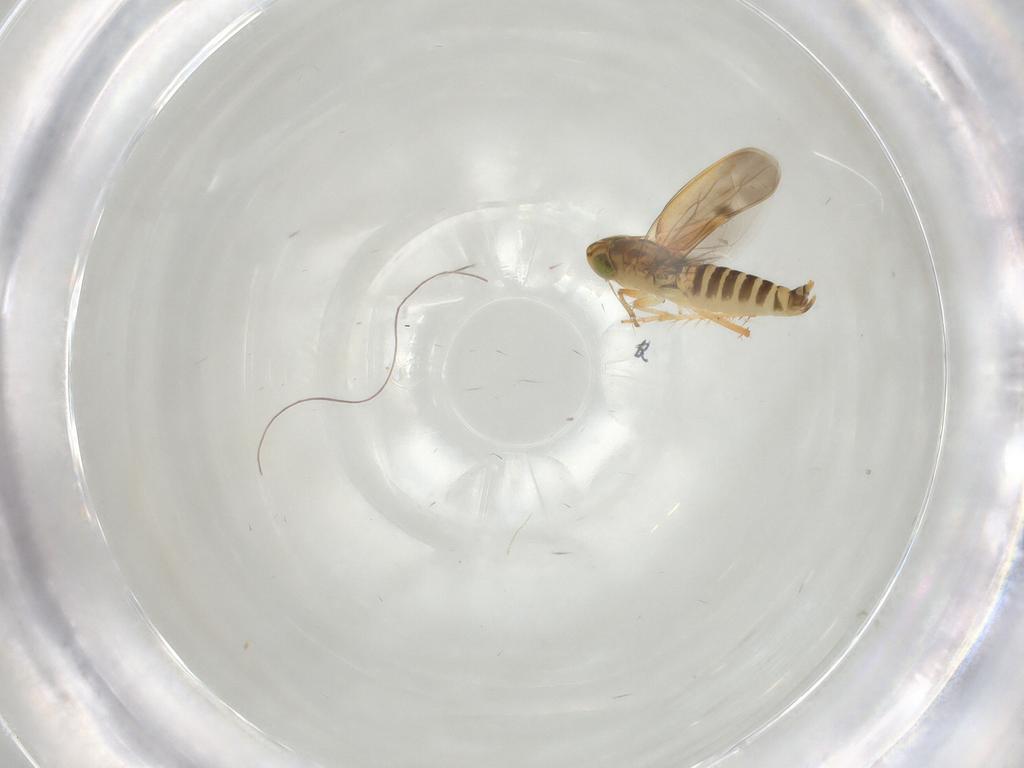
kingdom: Animalia
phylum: Arthropoda
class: Insecta
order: Hemiptera
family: Cicadellidae
